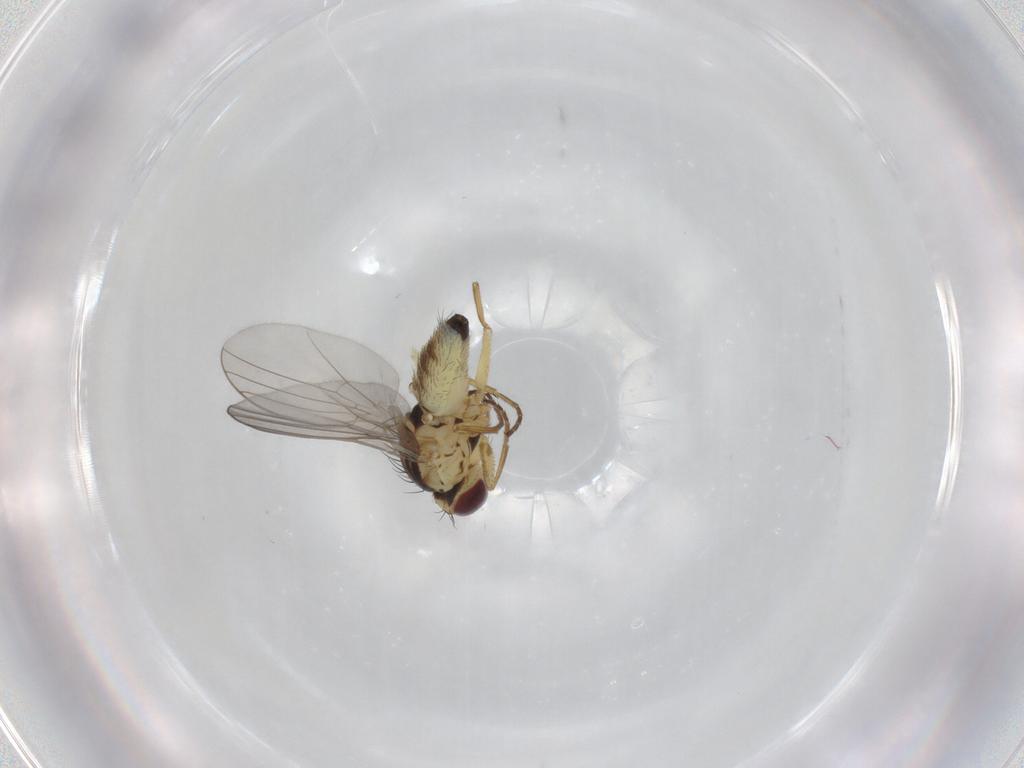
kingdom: Animalia
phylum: Arthropoda
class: Insecta
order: Diptera
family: Agromyzidae
